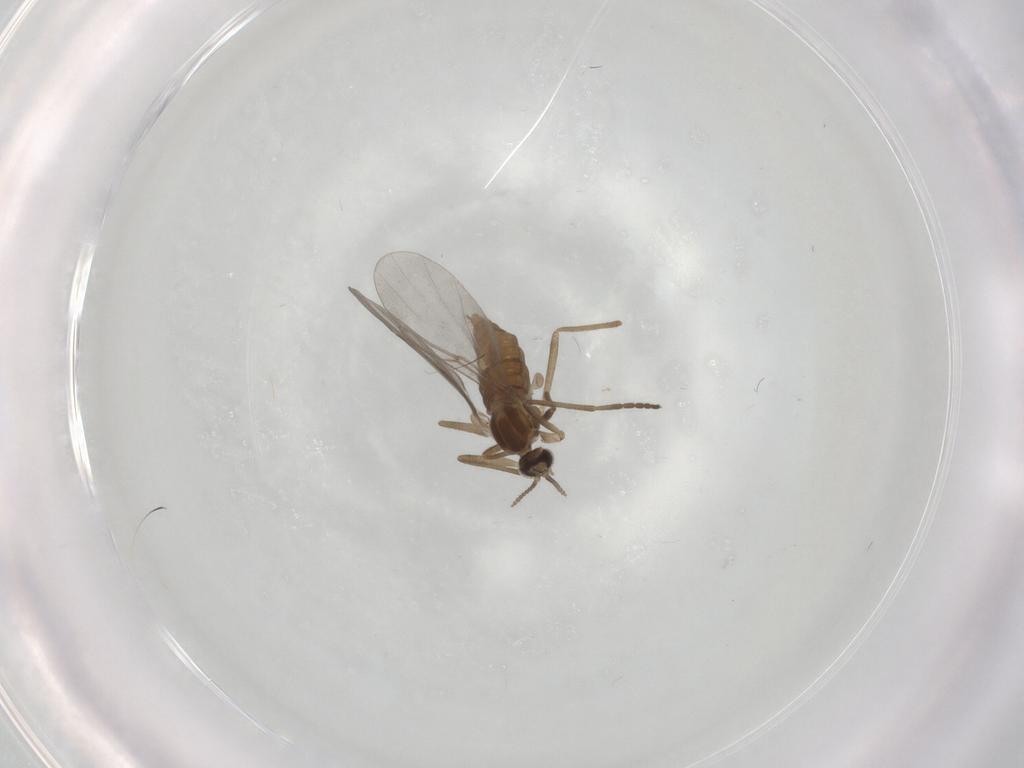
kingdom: Animalia
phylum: Arthropoda
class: Insecta
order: Diptera
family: Cecidomyiidae
